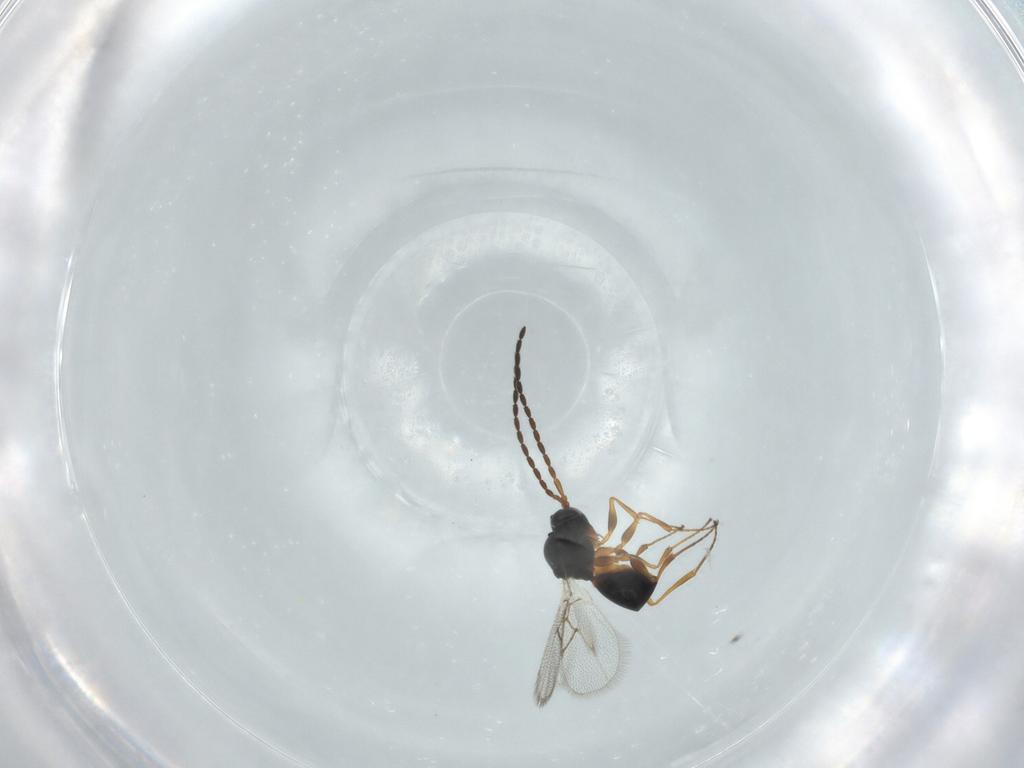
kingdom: Animalia
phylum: Arthropoda
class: Insecta
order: Hymenoptera
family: Figitidae
